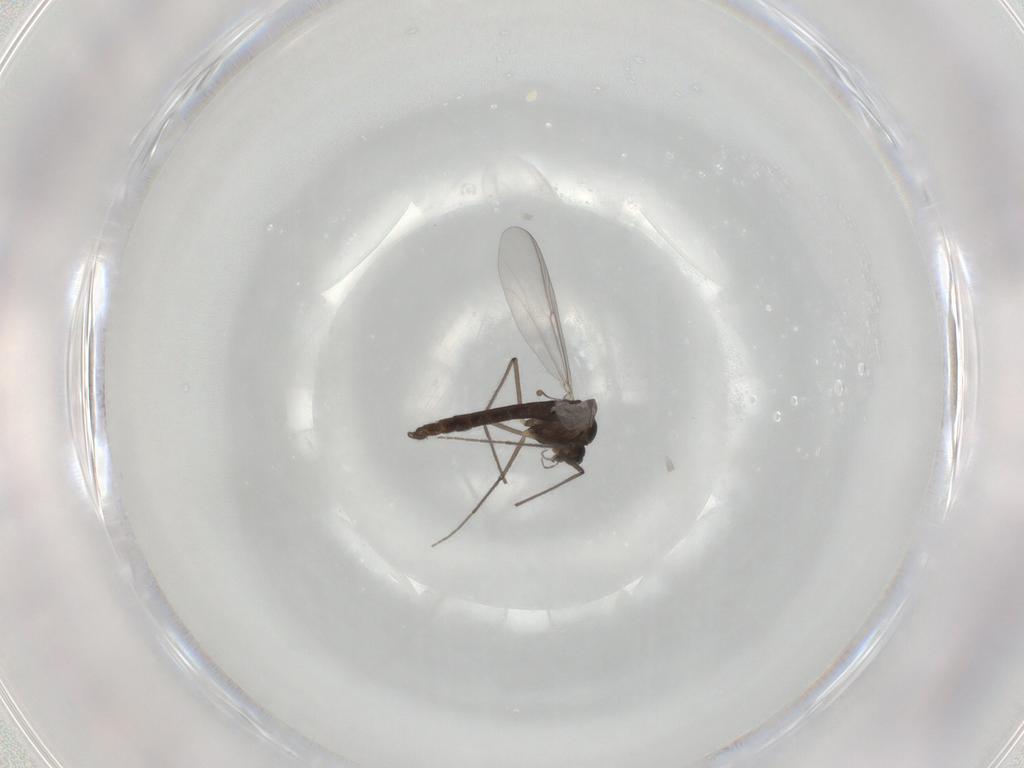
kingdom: Animalia
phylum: Arthropoda
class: Insecta
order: Diptera
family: Chironomidae
